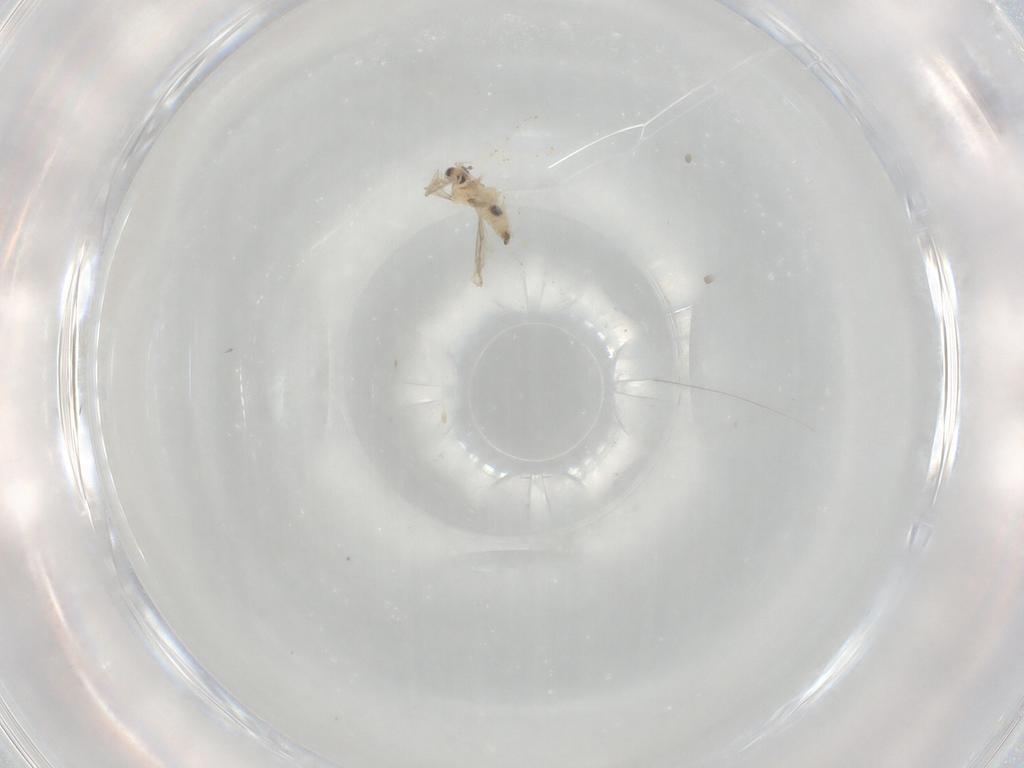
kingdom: Animalia
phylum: Arthropoda
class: Insecta
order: Diptera
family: Cecidomyiidae
